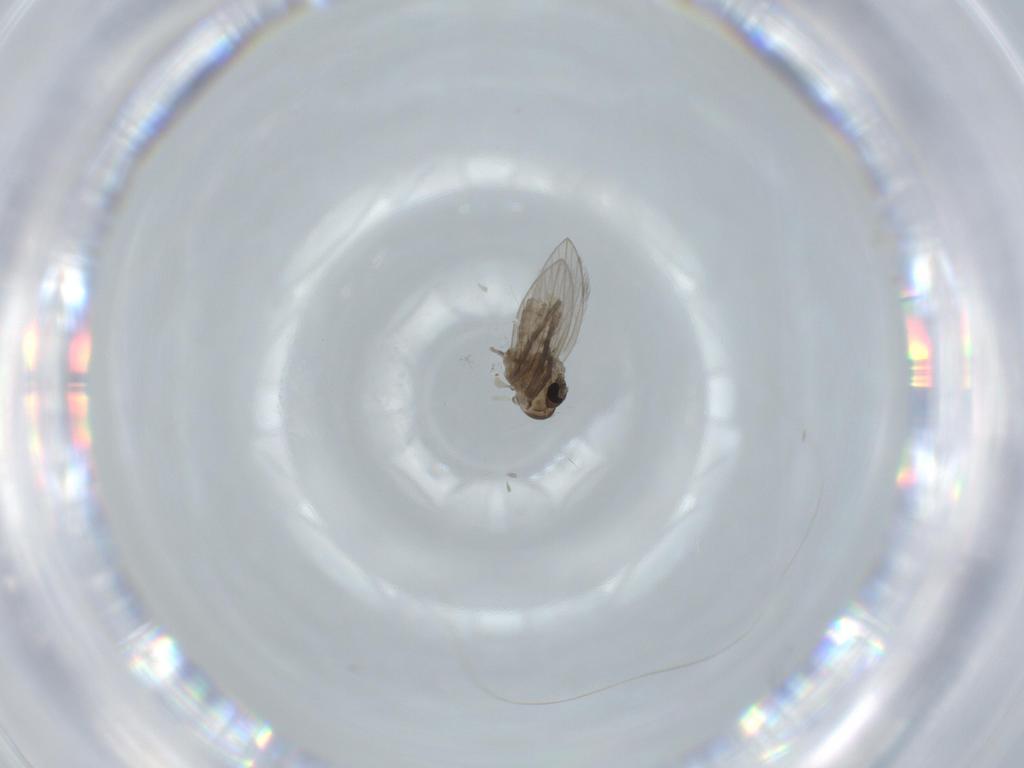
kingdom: Animalia
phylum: Arthropoda
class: Insecta
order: Diptera
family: Psychodidae
